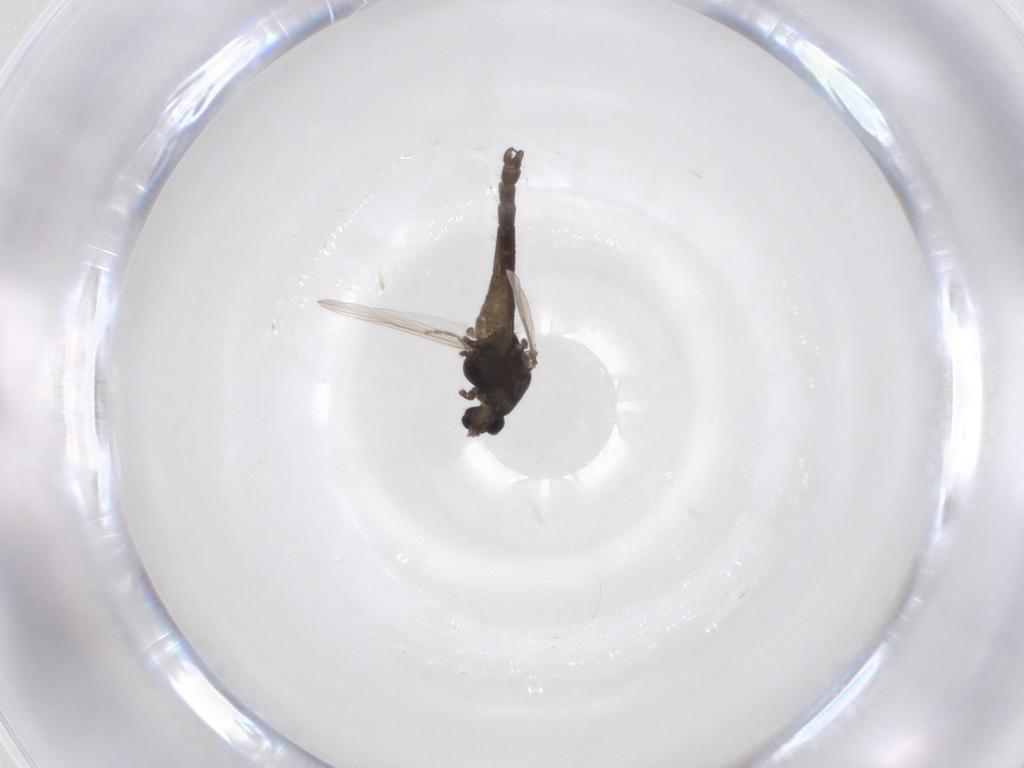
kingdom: Animalia
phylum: Arthropoda
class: Insecta
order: Diptera
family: Chironomidae
